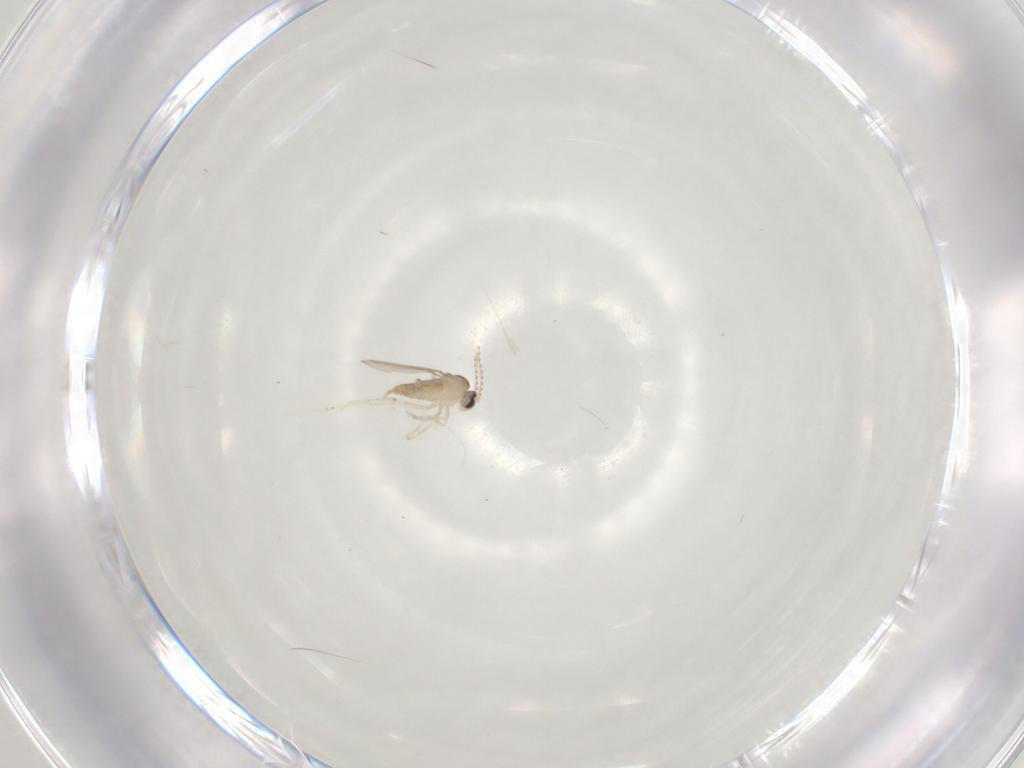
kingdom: Animalia
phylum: Arthropoda
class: Insecta
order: Diptera
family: Cecidomyiidae
